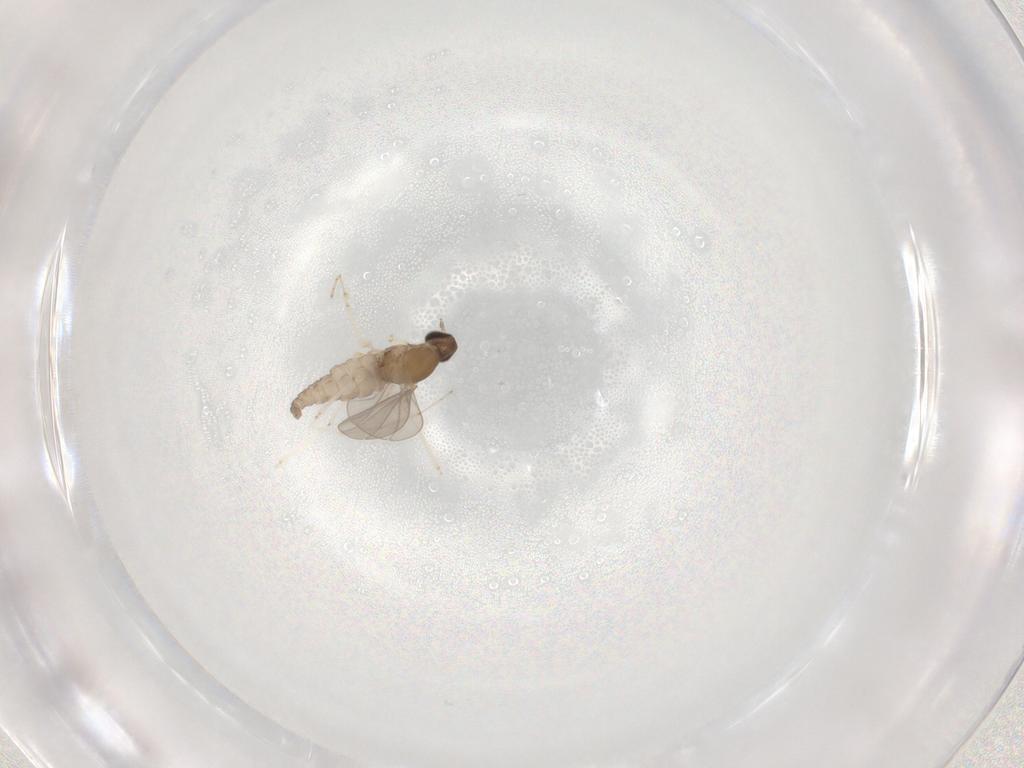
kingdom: Animalia
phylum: Arthropoda
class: Insecta
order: Diptera
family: Cecidomyiidae
